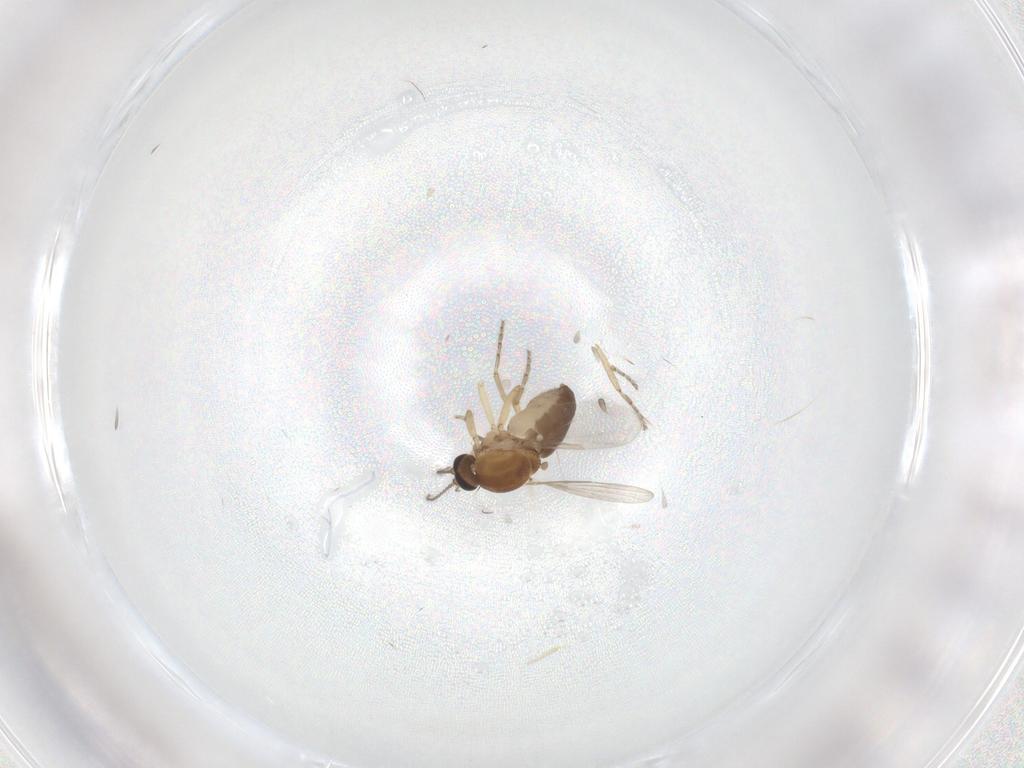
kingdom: Animalia
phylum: Arthropoda
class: Insecta
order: Diptera
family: Ceratopogonidae
